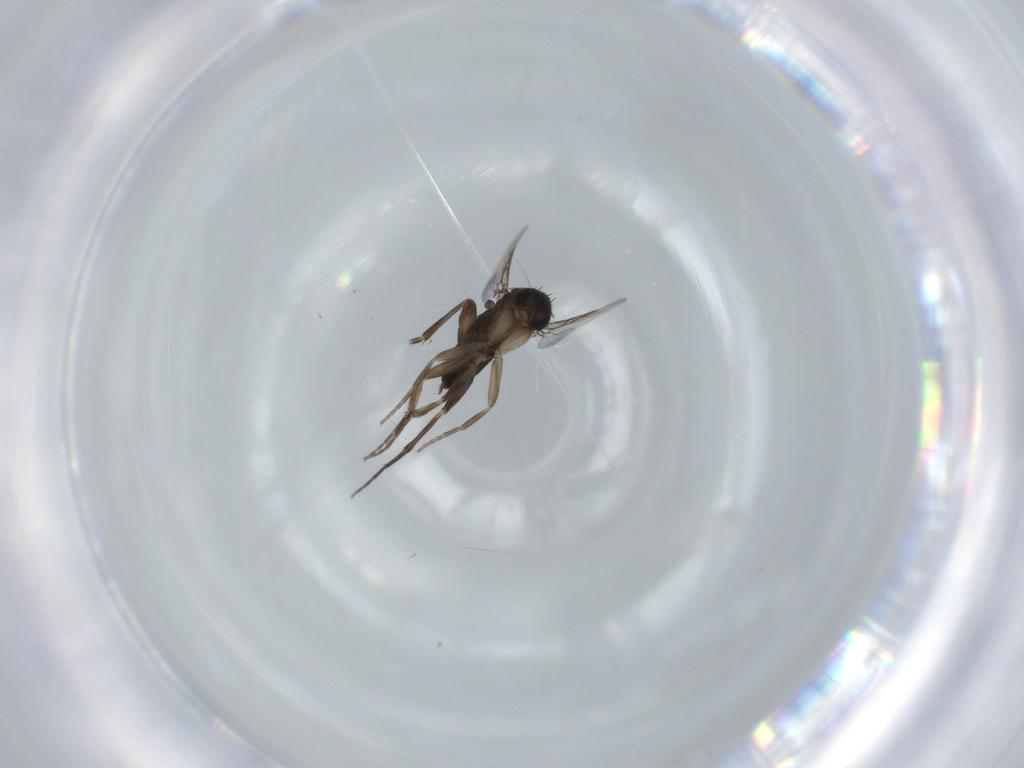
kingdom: Animalia
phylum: Arthropoda
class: Insecta
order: Diptera
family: Phoridae
